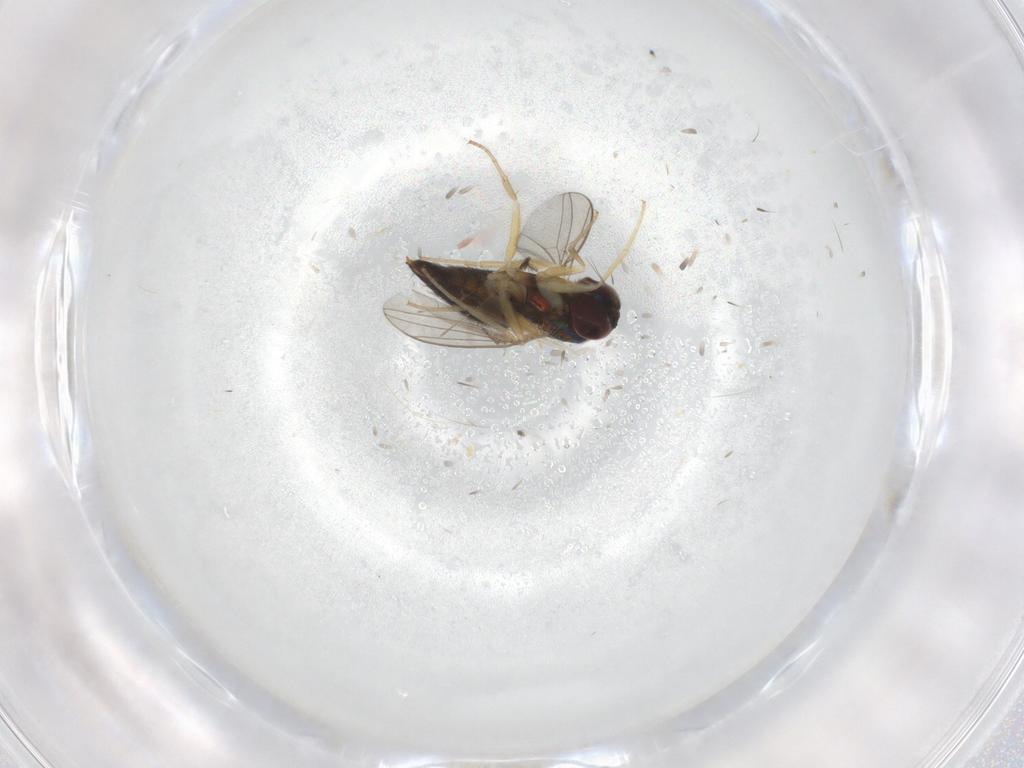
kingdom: Animalia
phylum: Arthropoda
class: Insecta
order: Diptera
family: Dolichopodidae
